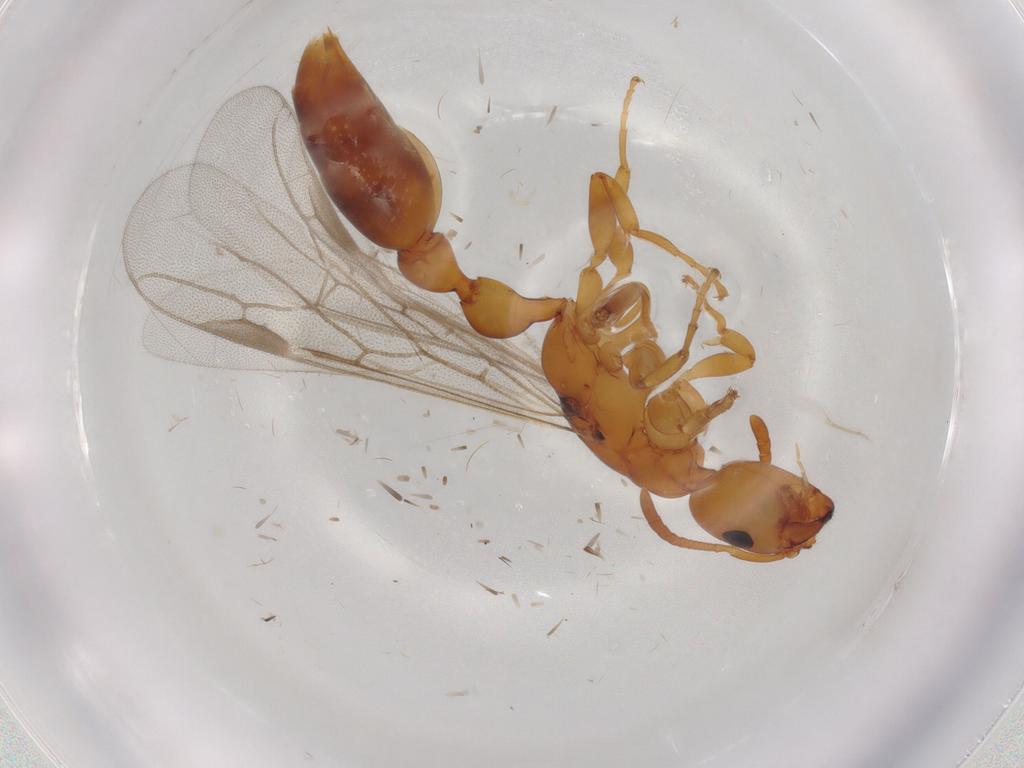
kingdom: Animalia
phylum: Arthropoda
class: Insecta
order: Hymenoptera
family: Formicidae
